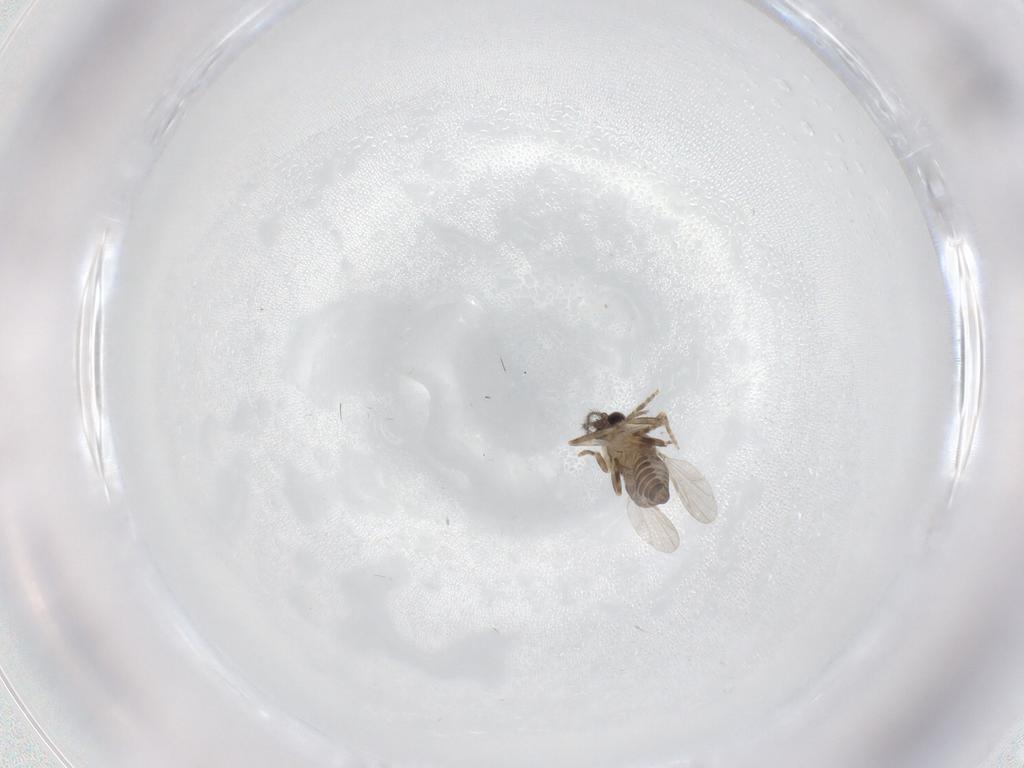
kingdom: Animalia
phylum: Arthropoda
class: Insecta
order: Diptera
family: Ceratopogonidae
